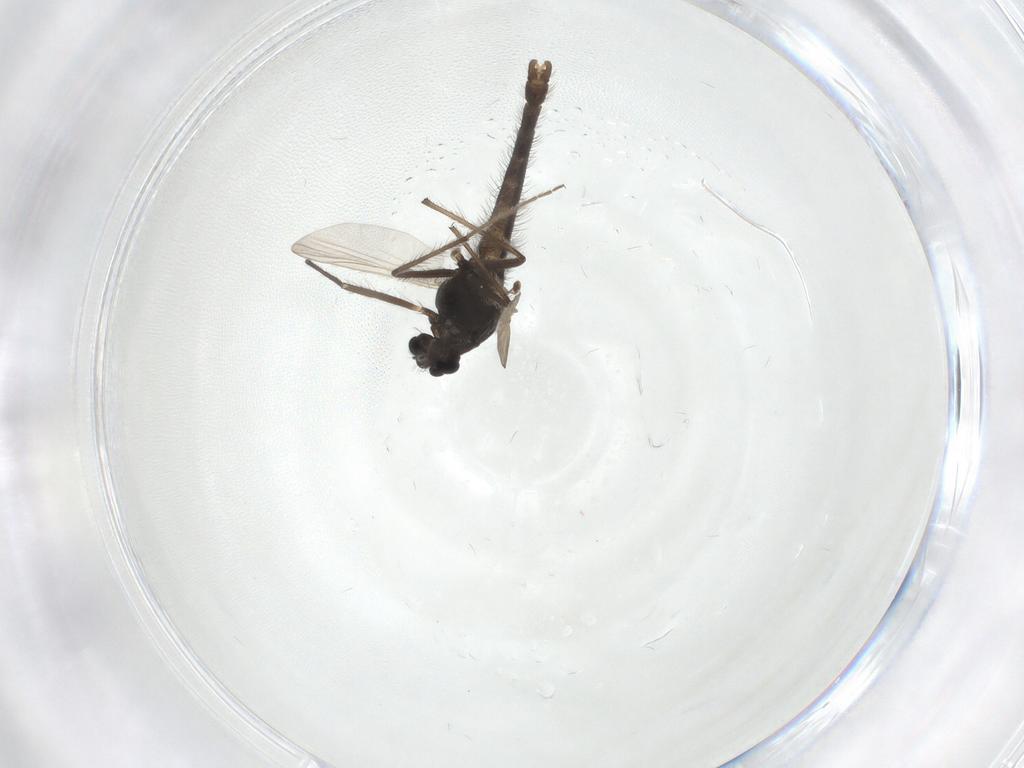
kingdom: Animalia
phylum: Arthropoda
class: Insecta
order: Diptera
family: Chironomidae
